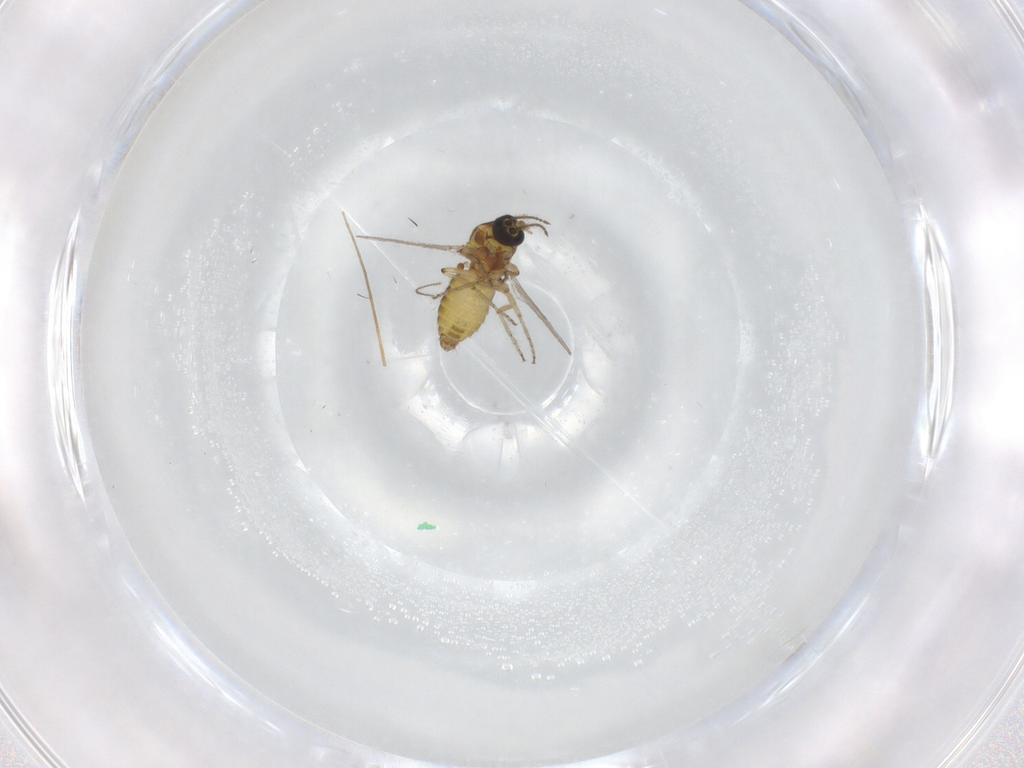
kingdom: Animalia
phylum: Arthropoda
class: Insecta
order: Diptera
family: Ceratopogonidae
